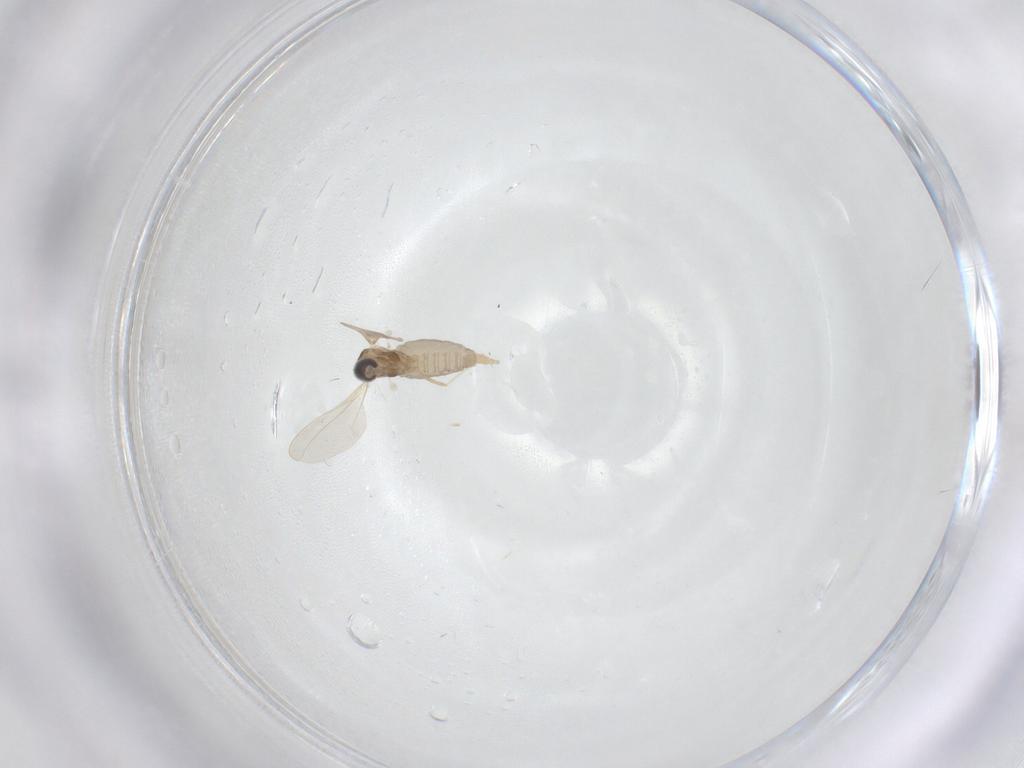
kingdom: Animalia
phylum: Arthropoda
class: Insecta
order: Diptera
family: Cecidomyiidae
